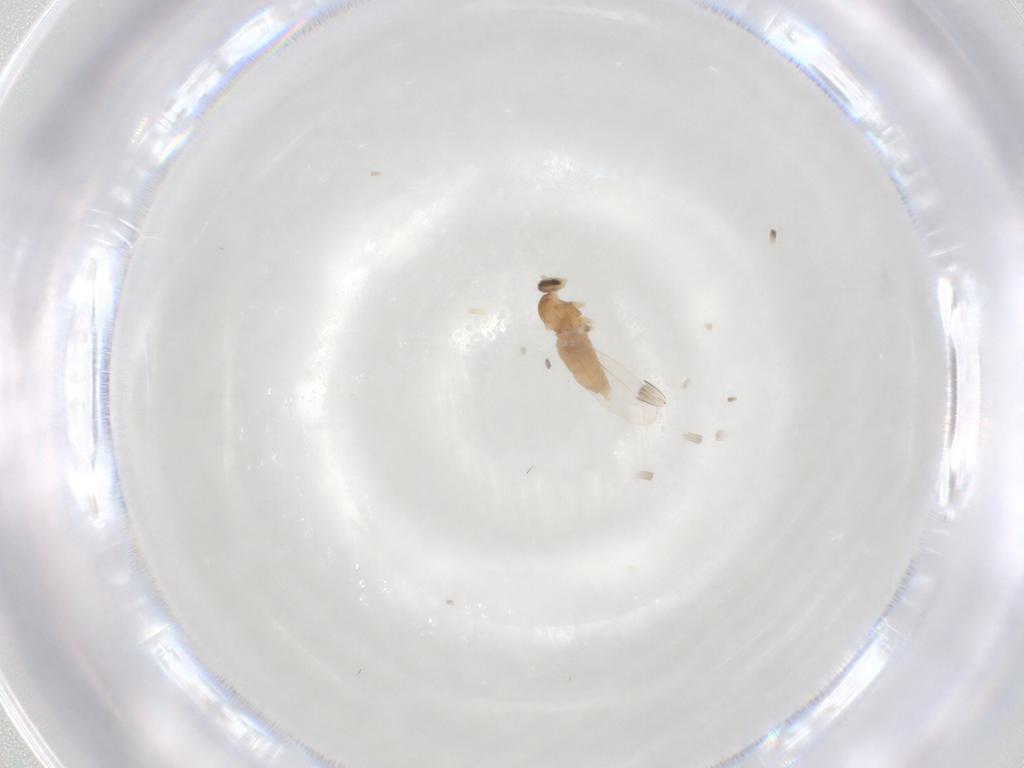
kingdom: Animalia
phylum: Arthropoda
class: Insecta
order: Diptera
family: Cecidomyiidae
